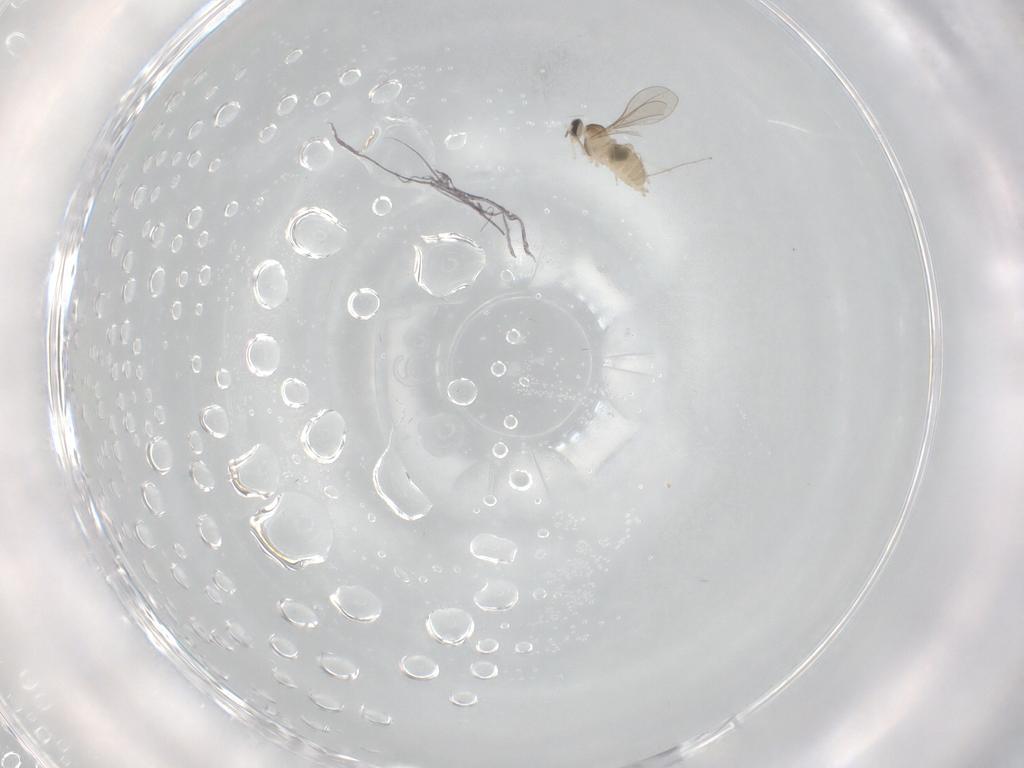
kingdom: Animalia
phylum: Arthropoda
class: Insecta
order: Diptera
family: Cecidomyiidae
